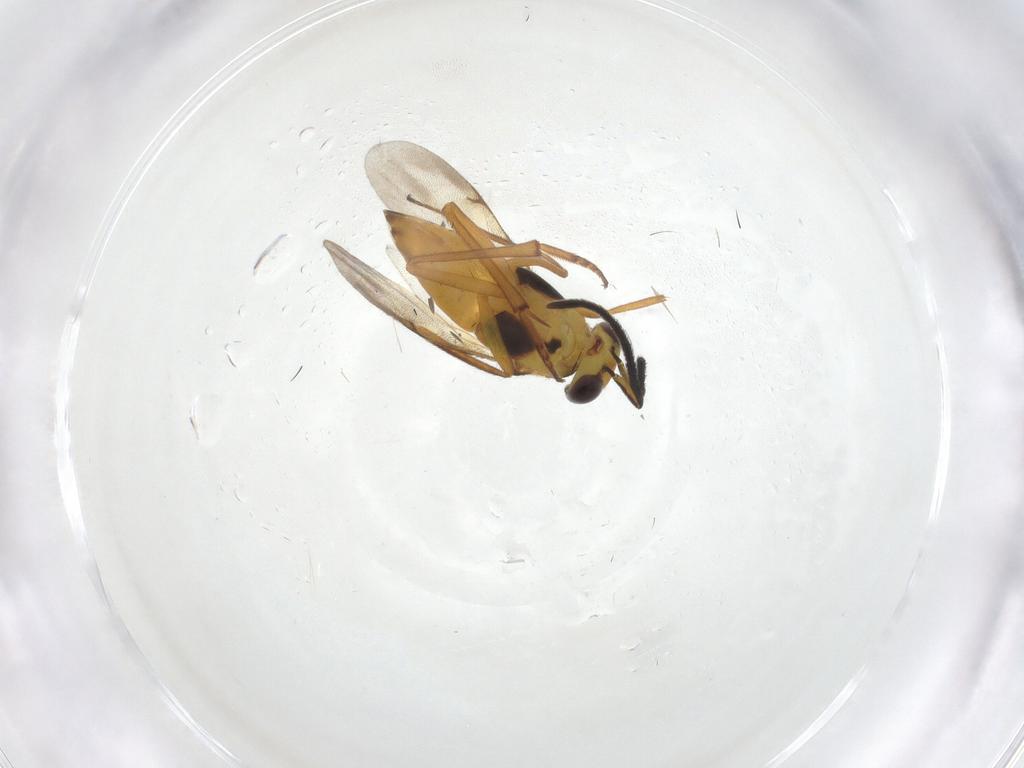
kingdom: Animalia
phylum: Arthropoda
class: Insecta
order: Hymenoptera
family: Encyrtidae
